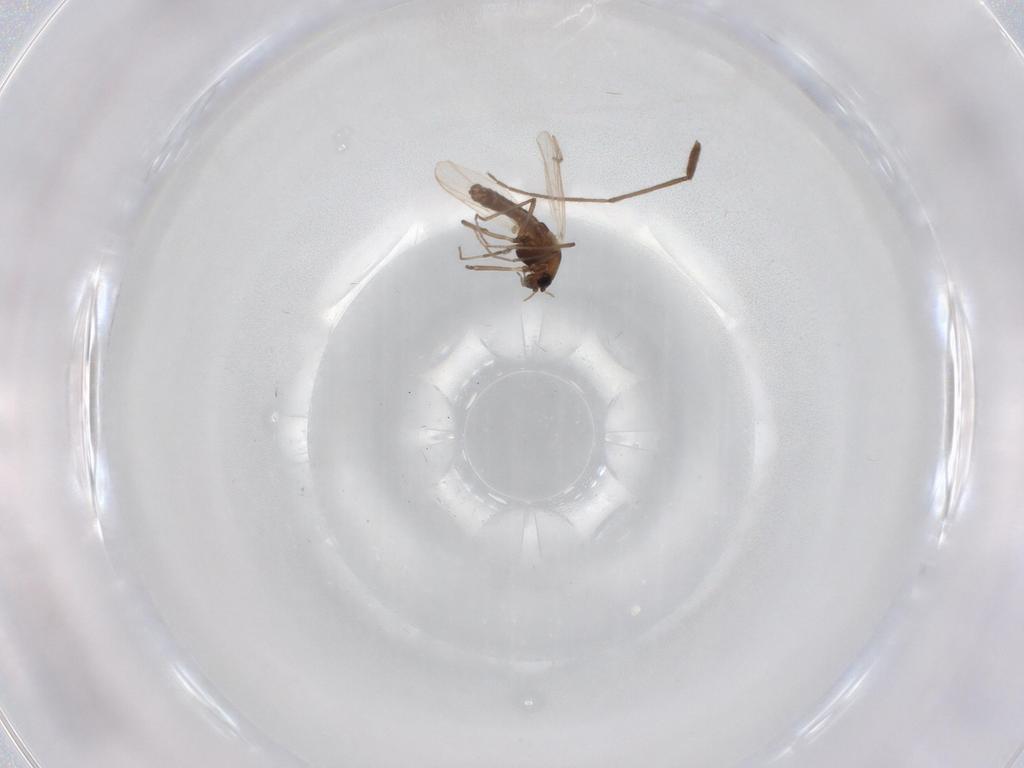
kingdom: Animalia
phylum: Arthropoda
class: Insecta
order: Diptera
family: Chironomidae
